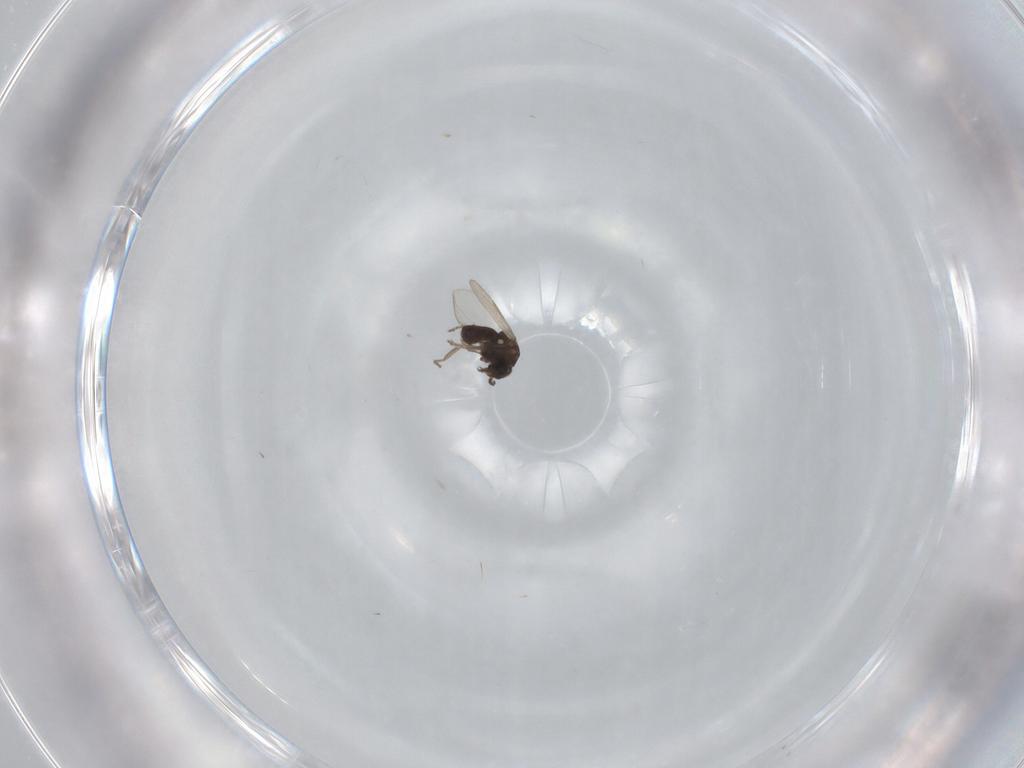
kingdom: Animalia
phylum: Arthropoda
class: Insecta
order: Diptera
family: Ceratopogonidae
